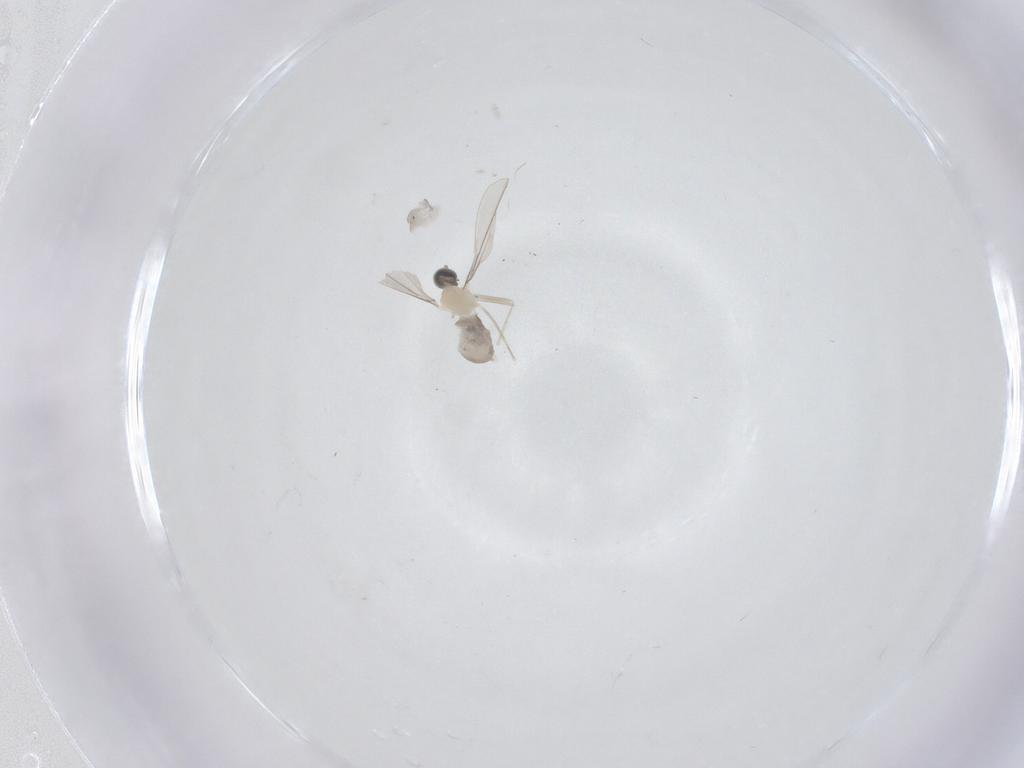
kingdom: Animalia
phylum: Arthropoda
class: Insecta
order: Diptera
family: Cecidomyiidae
